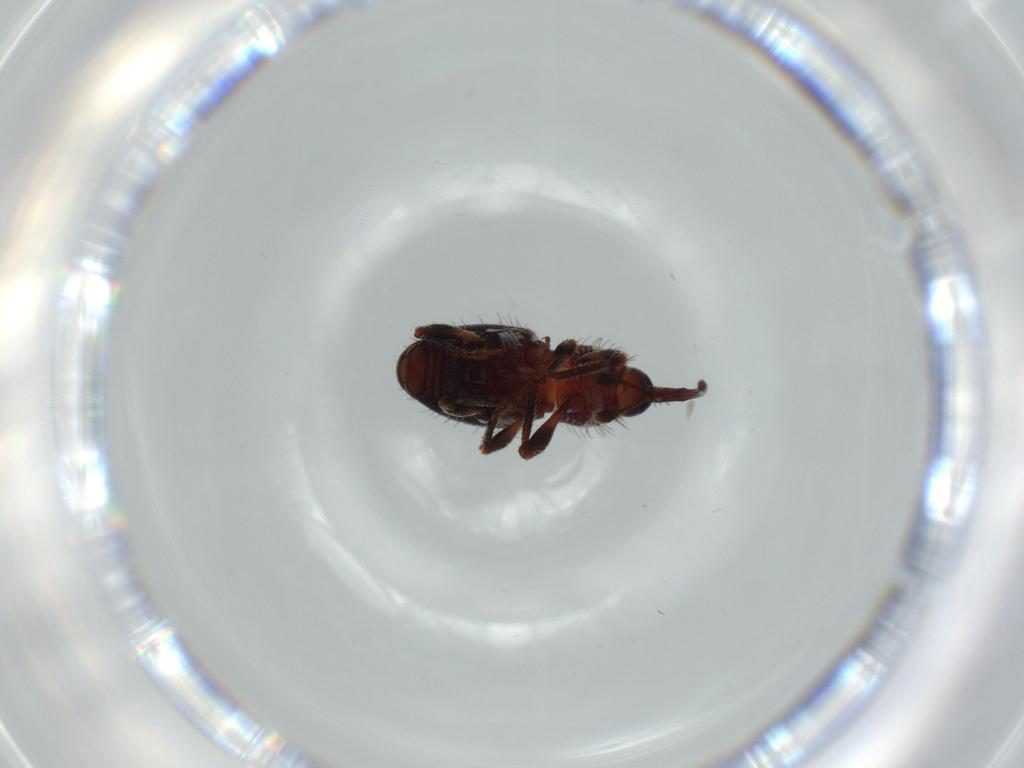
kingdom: Animalia
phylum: Arthropoda
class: Insecta
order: Coleoptera
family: Curculionidae
